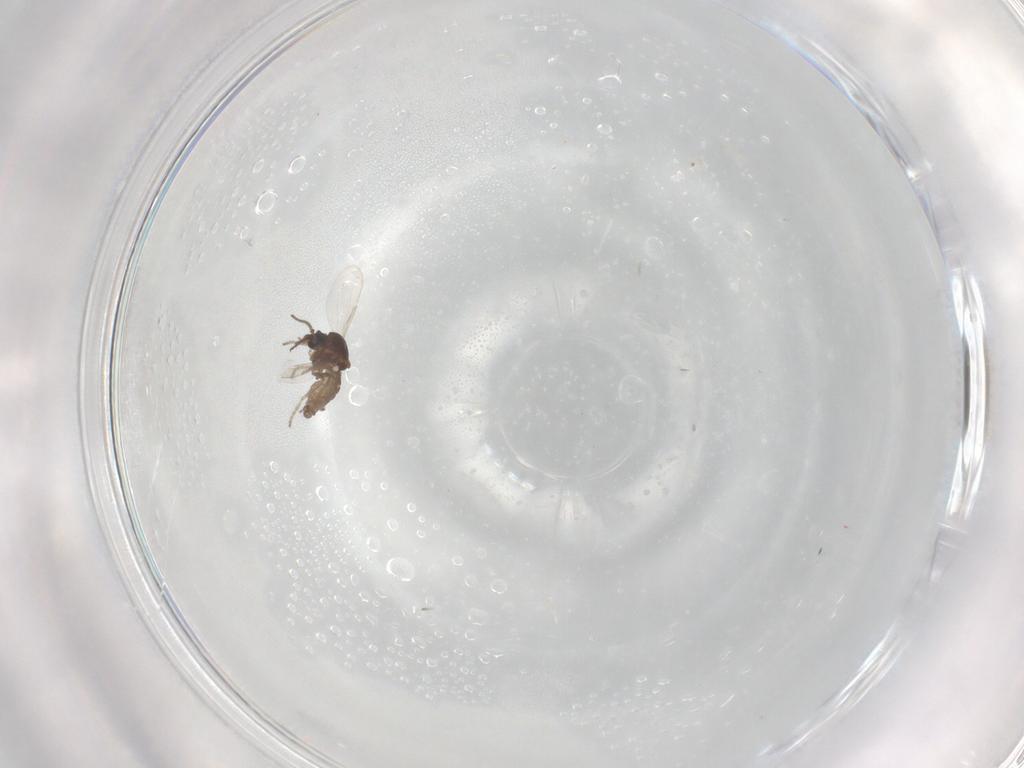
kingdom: Animalia
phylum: Arthropoda
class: Insecta
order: Diptera
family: Ceratopogonidae
